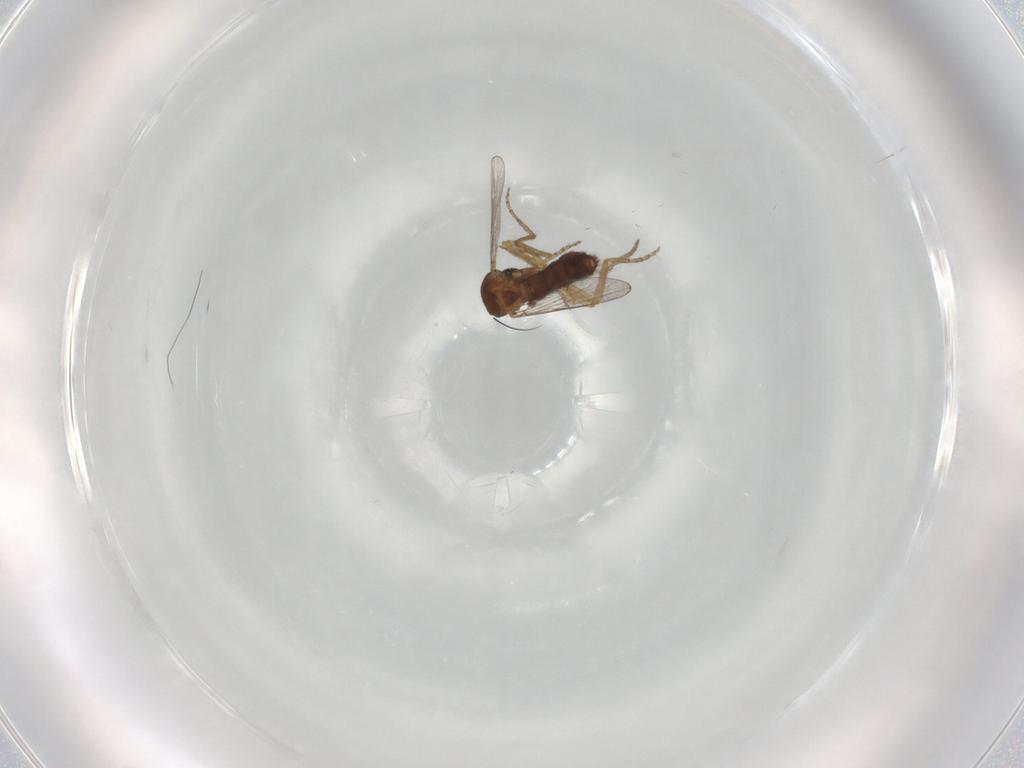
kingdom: Animalia
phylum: Arthropoda
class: Insecta
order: Diptera
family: Ceratopogonidae
